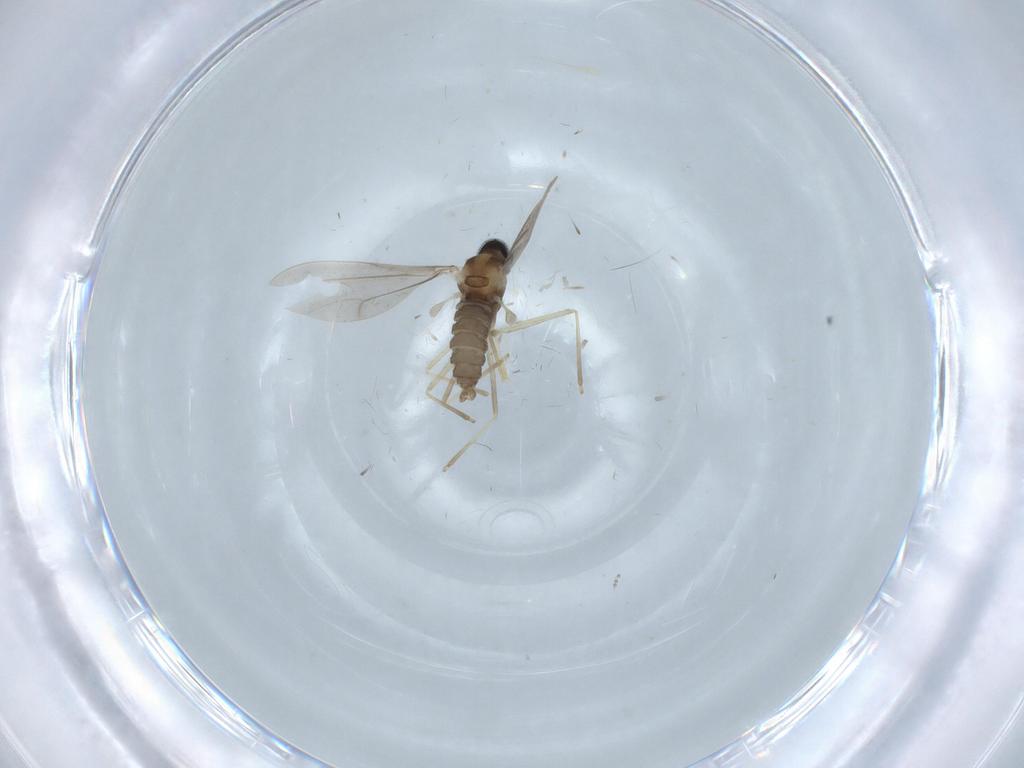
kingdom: Animalia
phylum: Arthropoda
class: Insecta
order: Diptera
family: Cecidomyiidae
